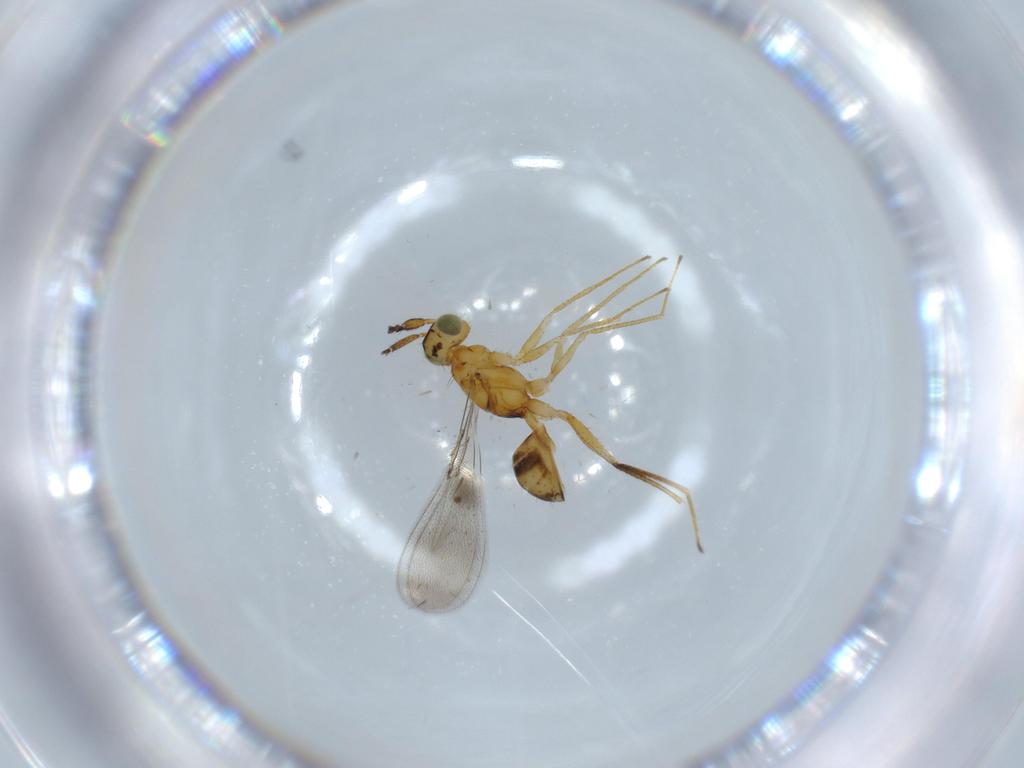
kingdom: Animalia
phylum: Arthropoda
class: Insecta
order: Hymenoptera
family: Mymaridae
